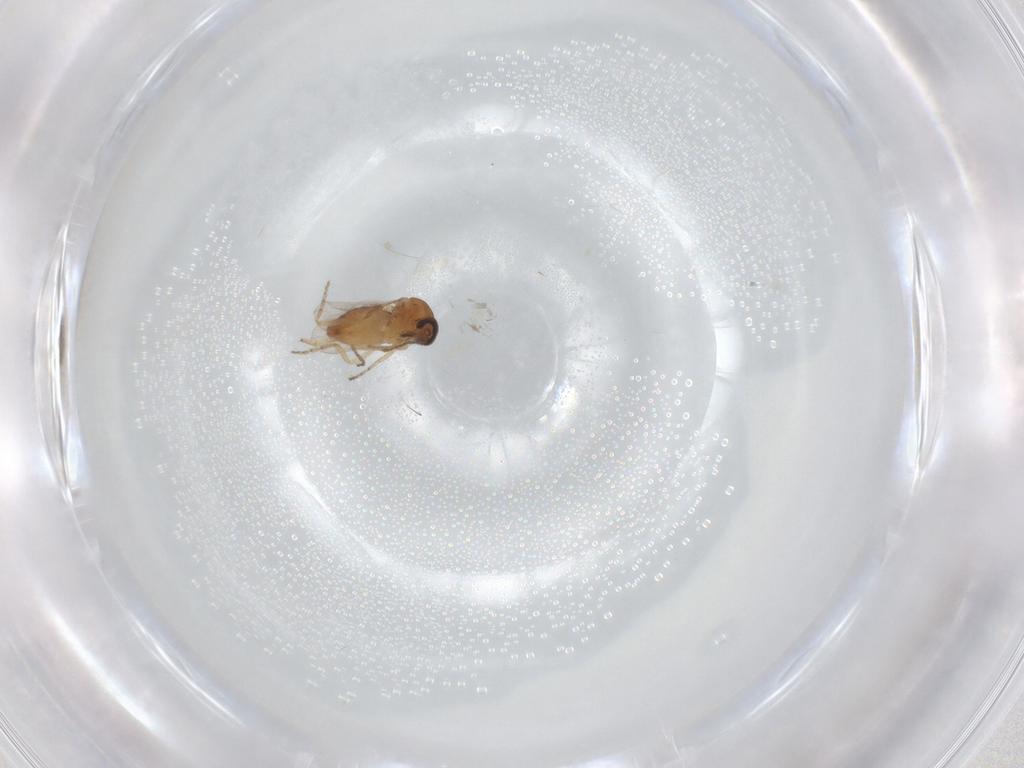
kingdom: Animalia
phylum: Arthropoda
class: Insecta
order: Diptera
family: Ceratopogonidae
